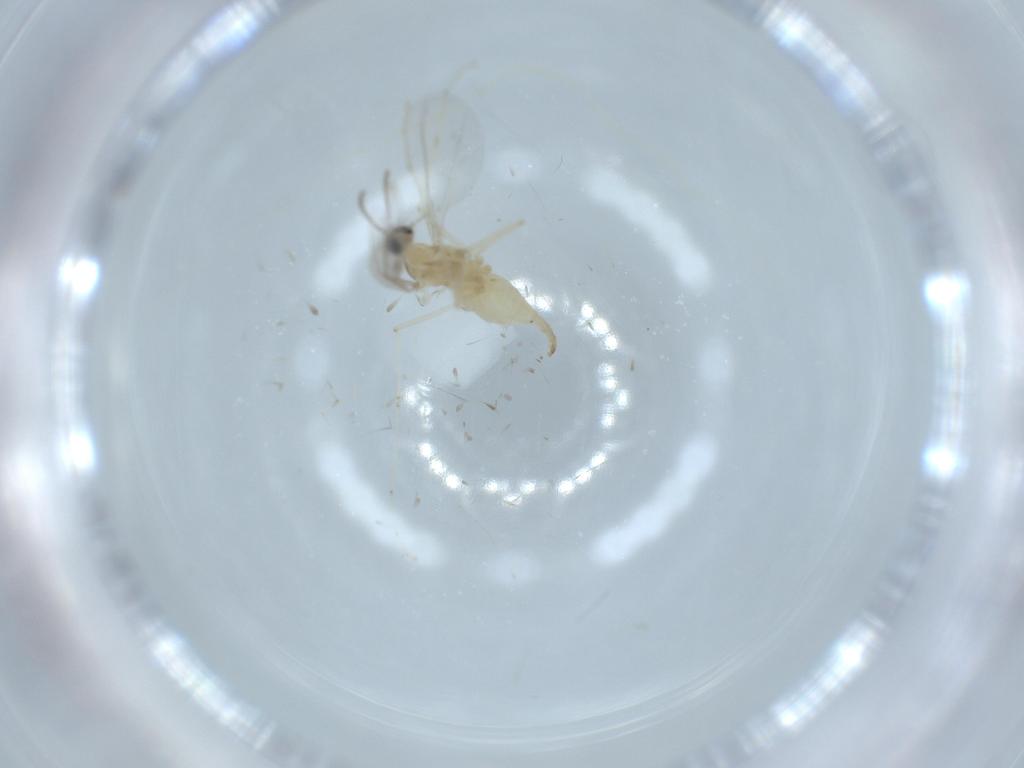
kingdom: Animalia
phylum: Arthropoda
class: Insecta
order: Diptera
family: Cecidomyiidae
